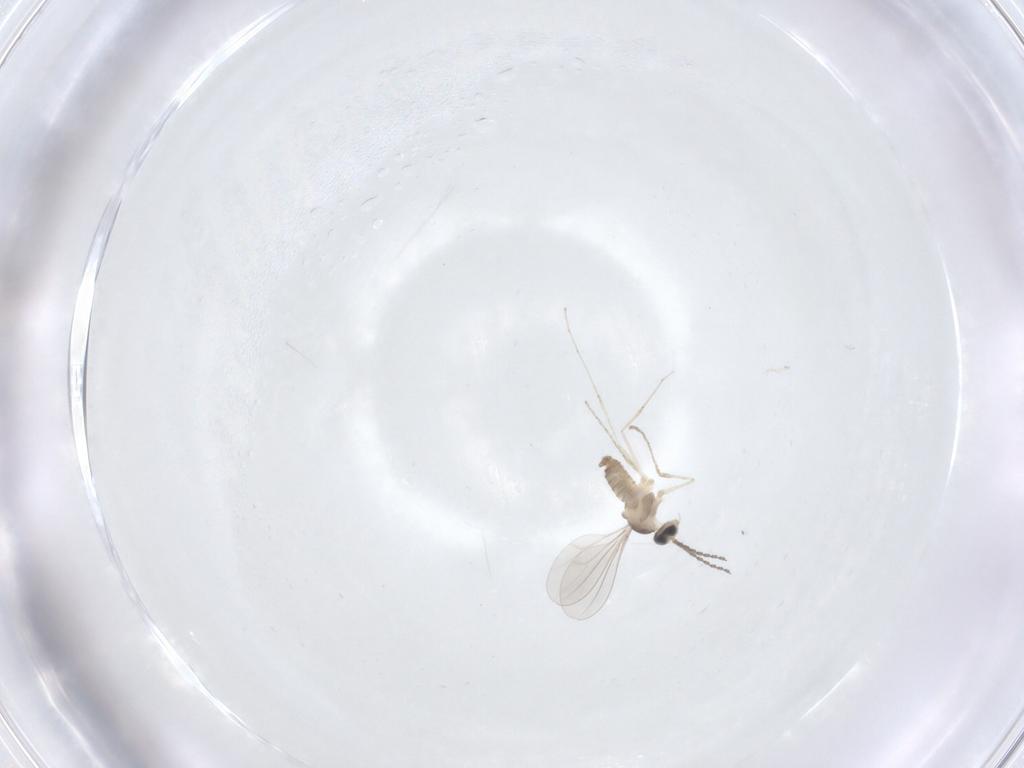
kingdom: Animalia
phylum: Arthropoda
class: Insecta
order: Diptera
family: Cecidomyiidae
